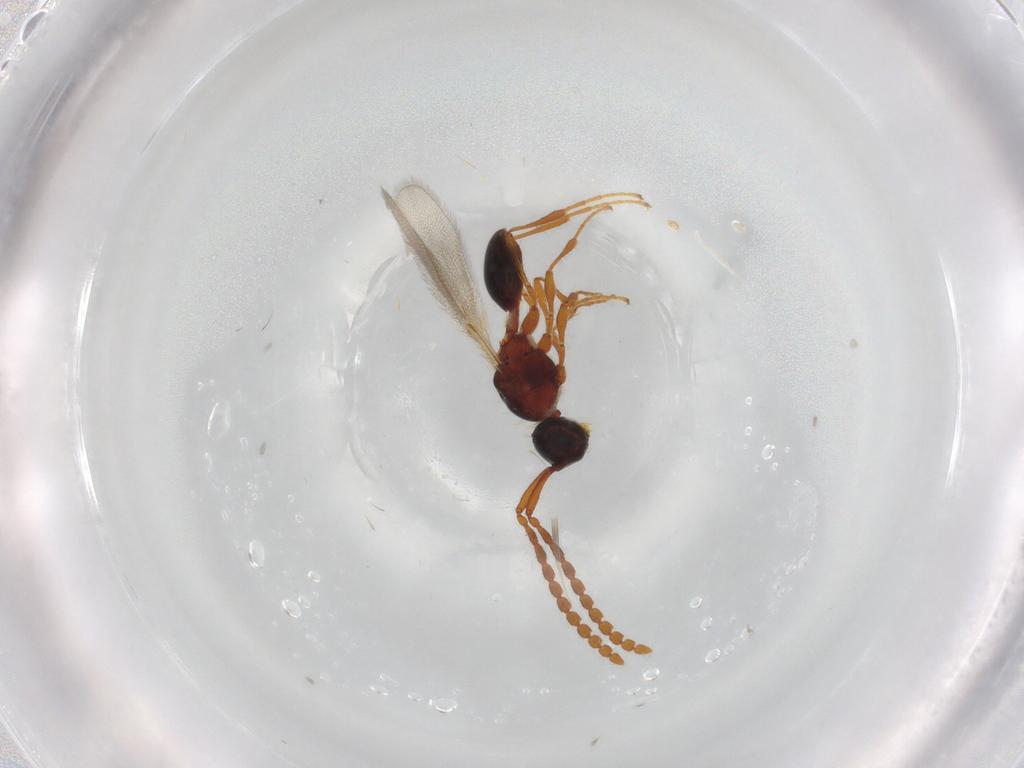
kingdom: Animalia
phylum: Arthropoda
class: Insecta
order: Hymenoptera
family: Diapriidae
